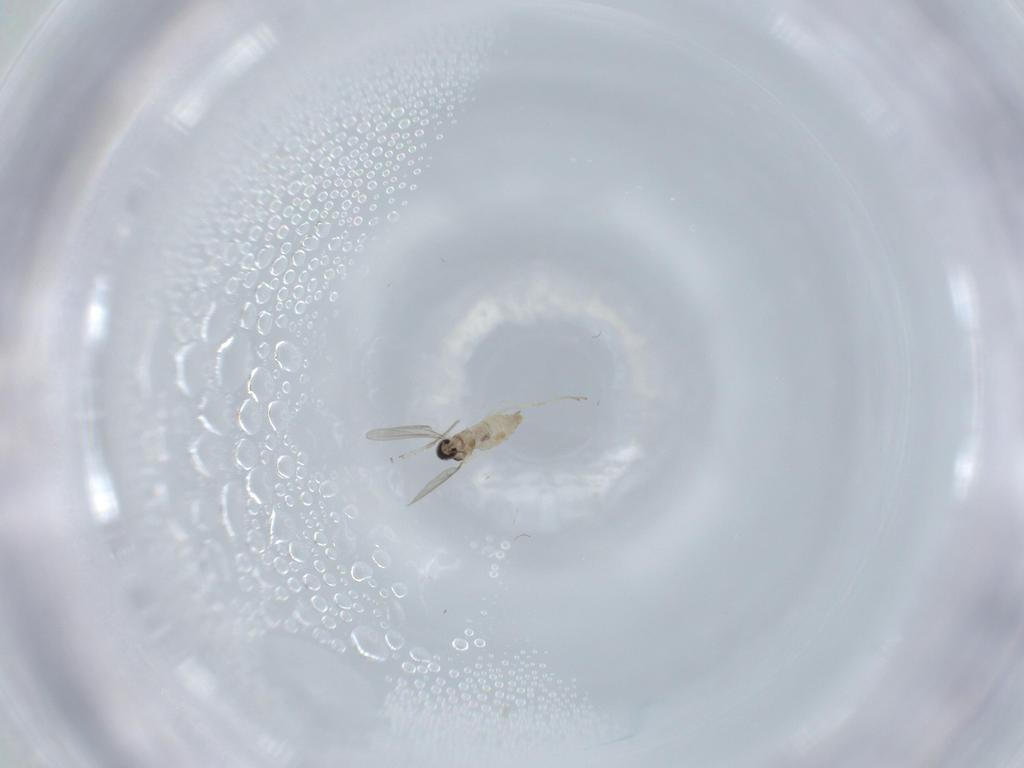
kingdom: Animalia
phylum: Arthropoda
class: Insecta
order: Diptera
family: Cecidomyiidae
